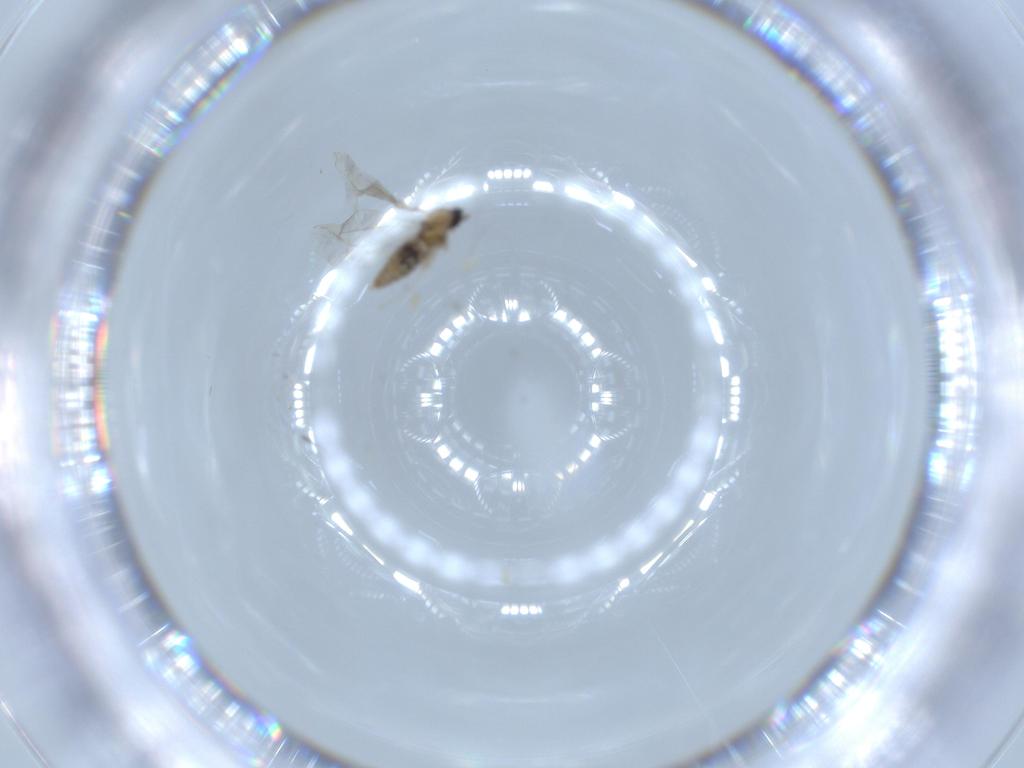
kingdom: Animalia
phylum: Arthropoda
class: Insecta
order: Diptera
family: Cecidomyiidae
